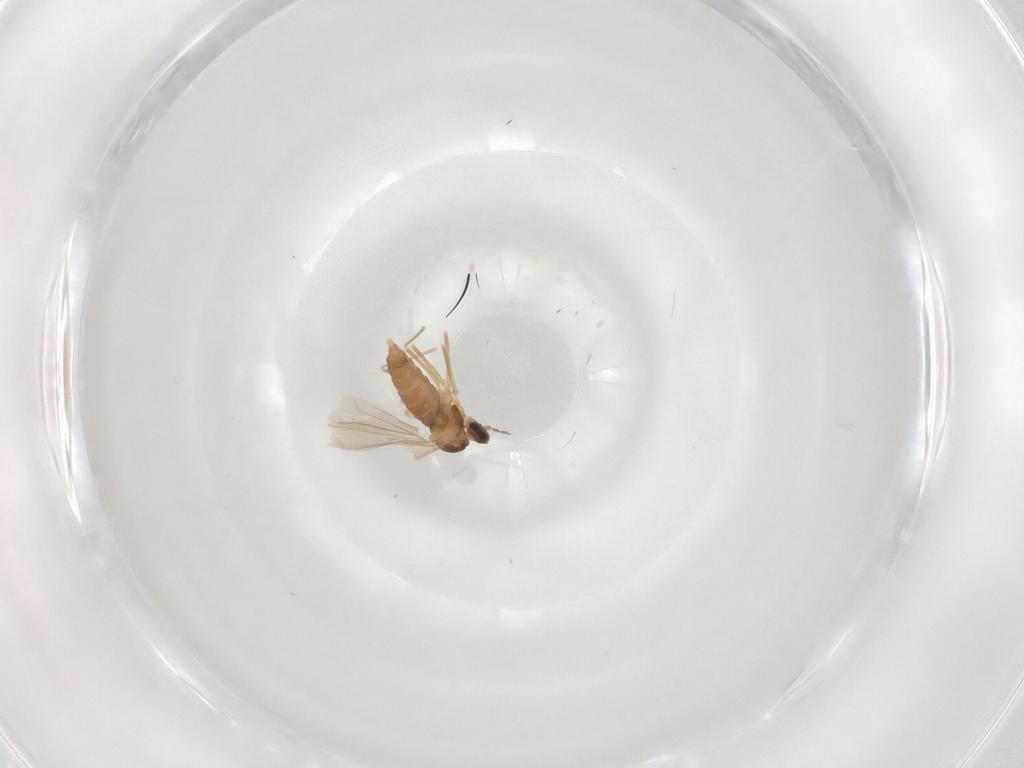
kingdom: Animalia
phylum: Arthropoda
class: Insecta
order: Diptera
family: Cecidomyiidae
